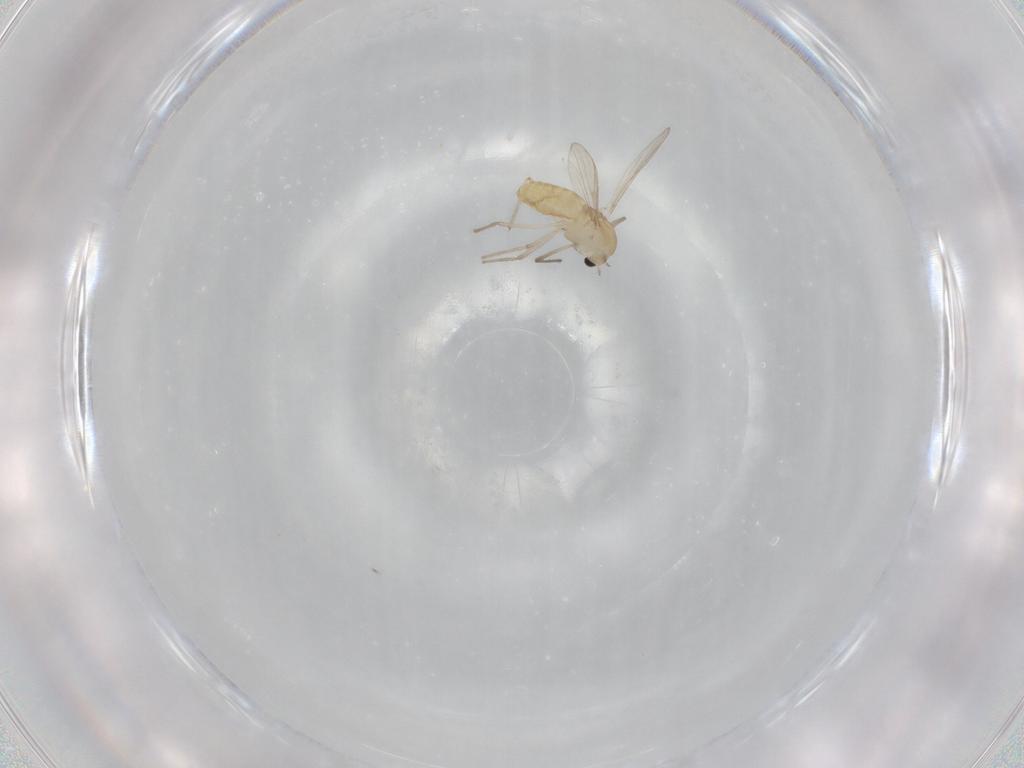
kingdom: Animalia
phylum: Arthropoda
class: Insecta
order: Diptera
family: Chironomidae
